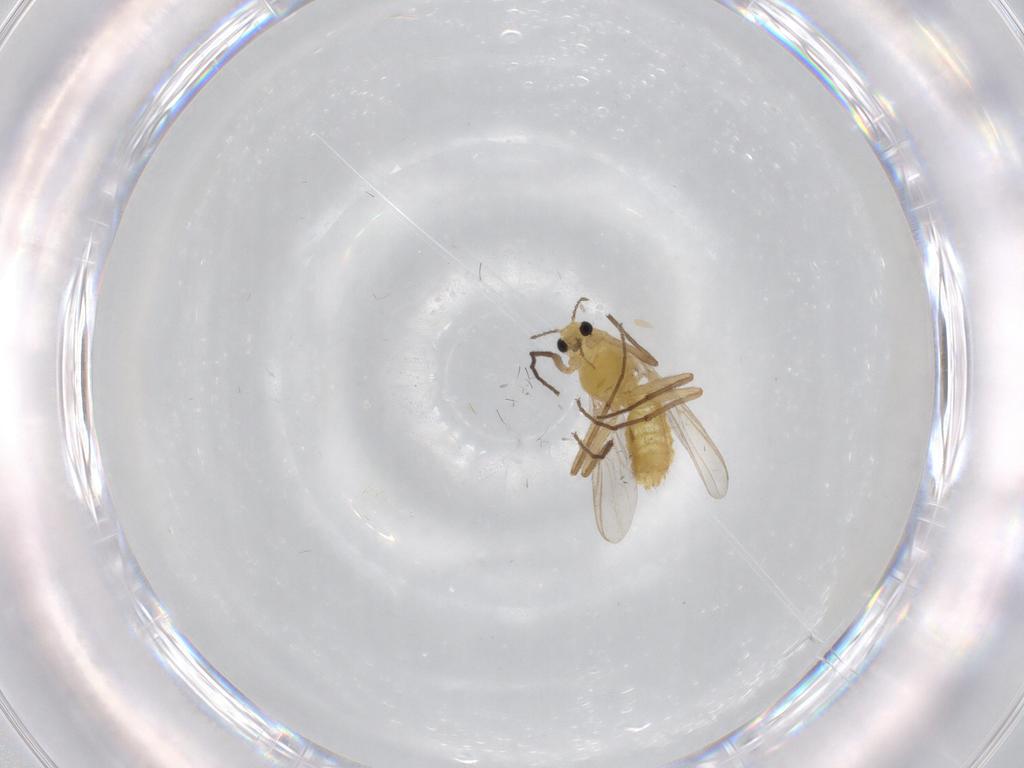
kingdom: Animalia
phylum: Arthropoda
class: Insecta
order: Diptera
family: Chironomidae
